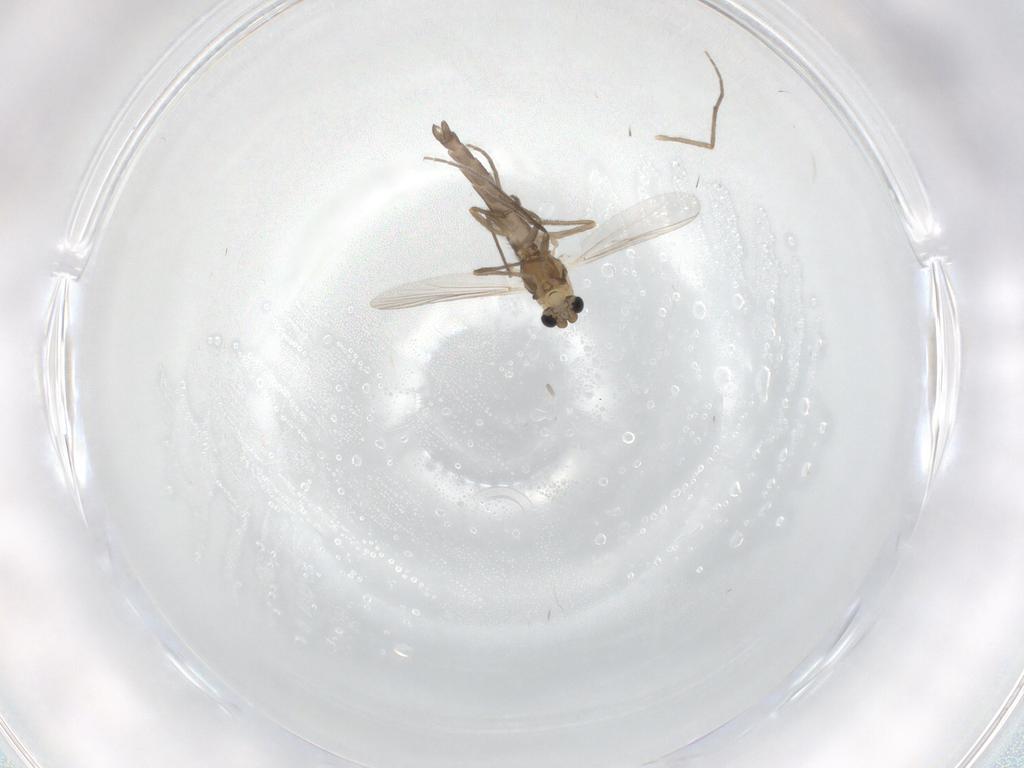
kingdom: Animalia
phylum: Arthropoda
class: Insecta
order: Diptera
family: Chironomidae
